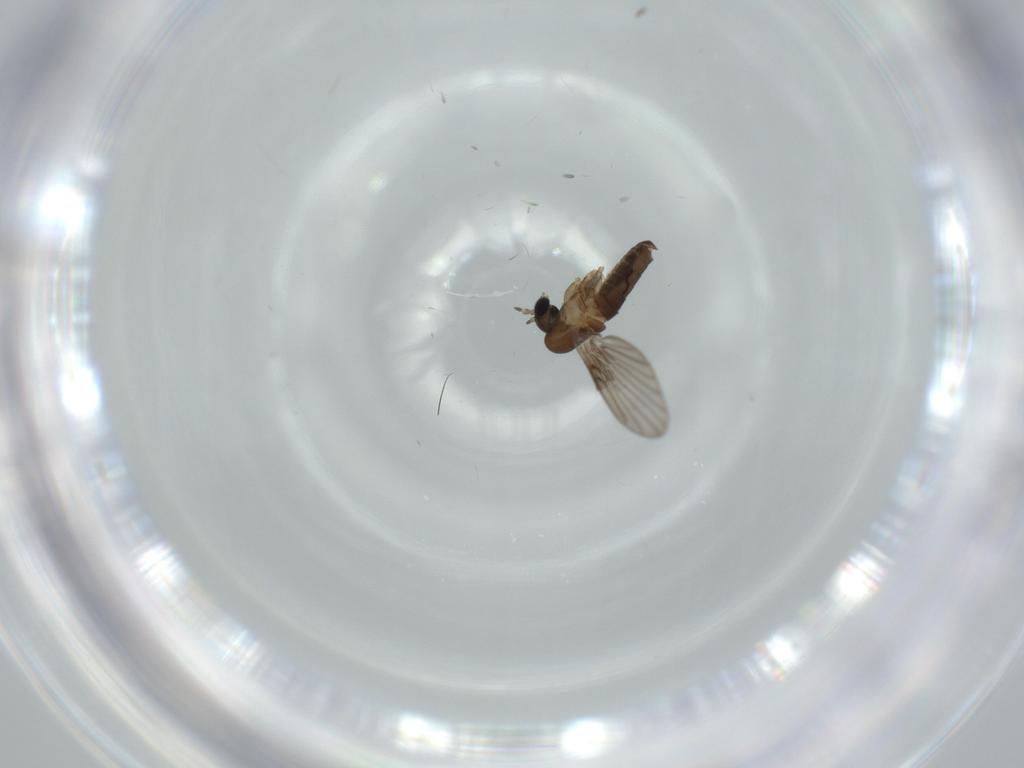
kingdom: Animalia
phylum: Arthropoda
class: Insecta
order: Diptera
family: Psychodidae
